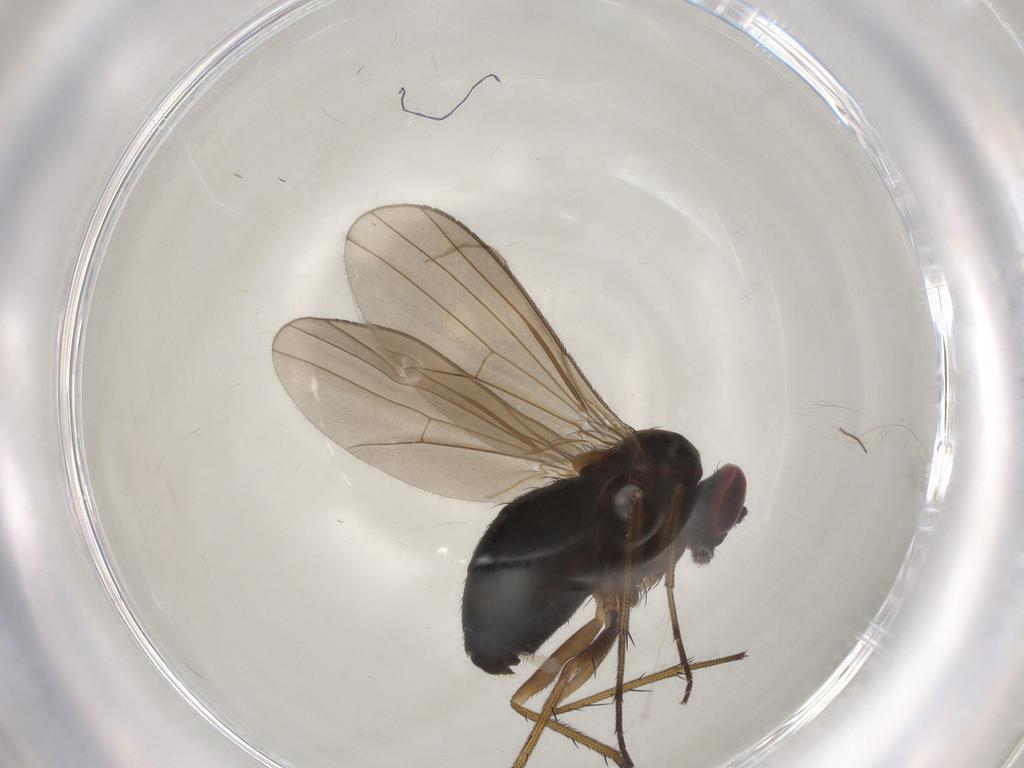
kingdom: Animalia
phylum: Arthropoda
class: Insecta
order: Diptera
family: Dolichopodidae
